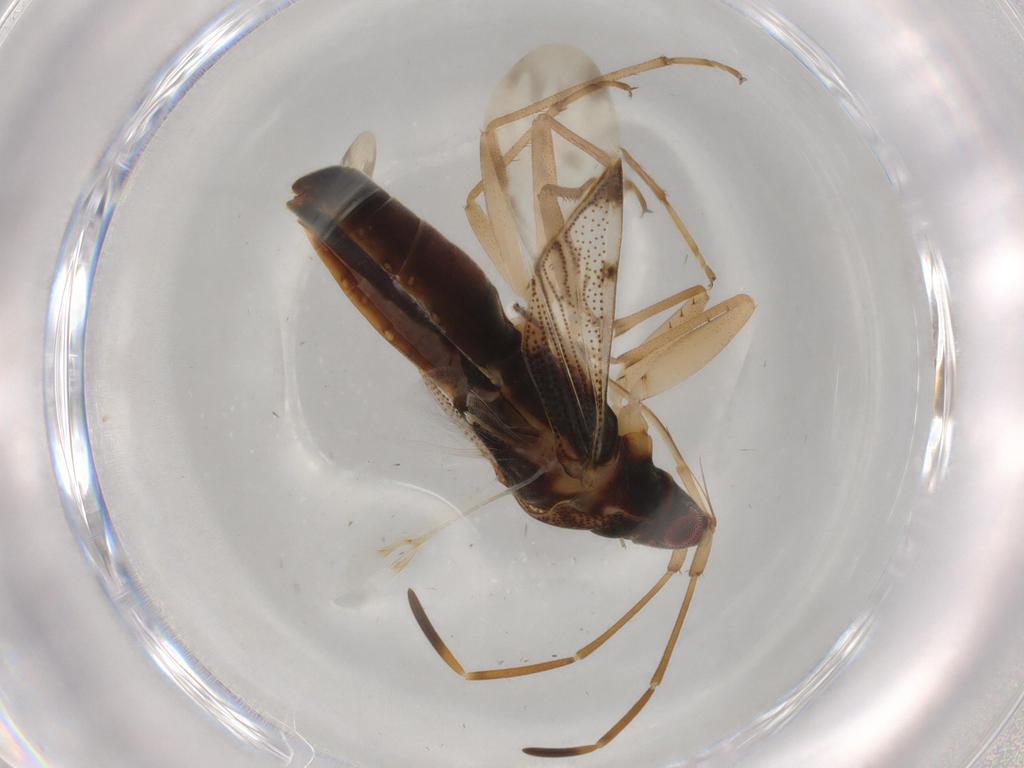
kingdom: Animalia
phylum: Arthropoda
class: Insecta
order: Hemiptera
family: Rhyparochromidae
